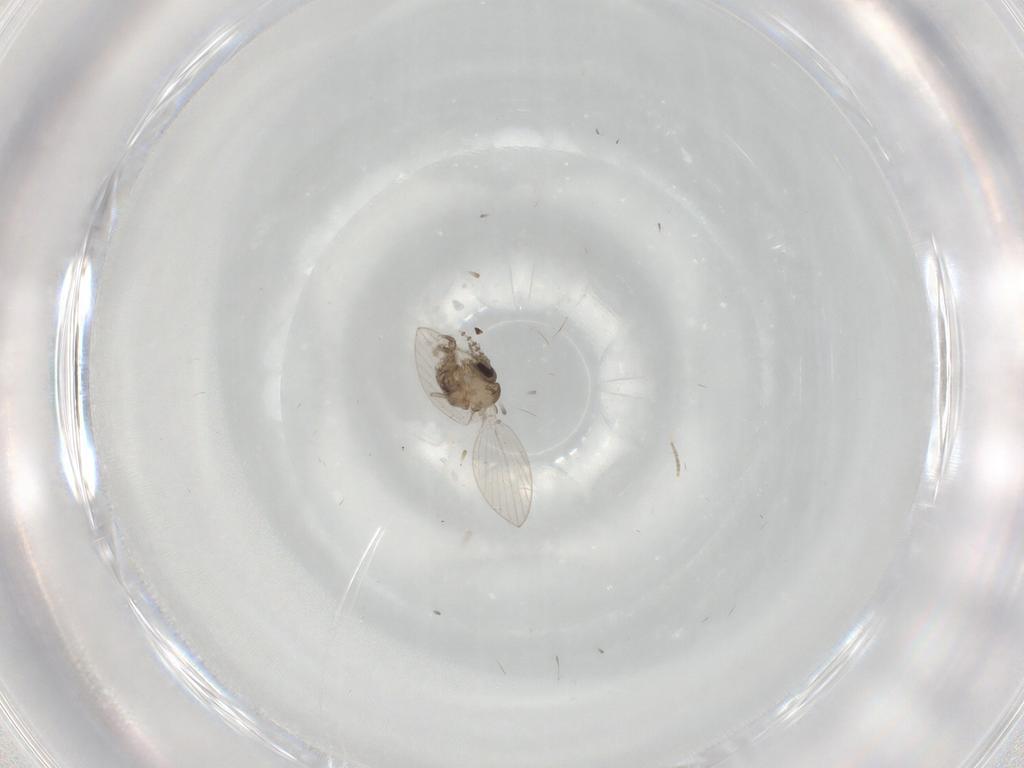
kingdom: Animalia
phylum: Arthropoda
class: Insecta
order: Diptera
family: Psychodidae
